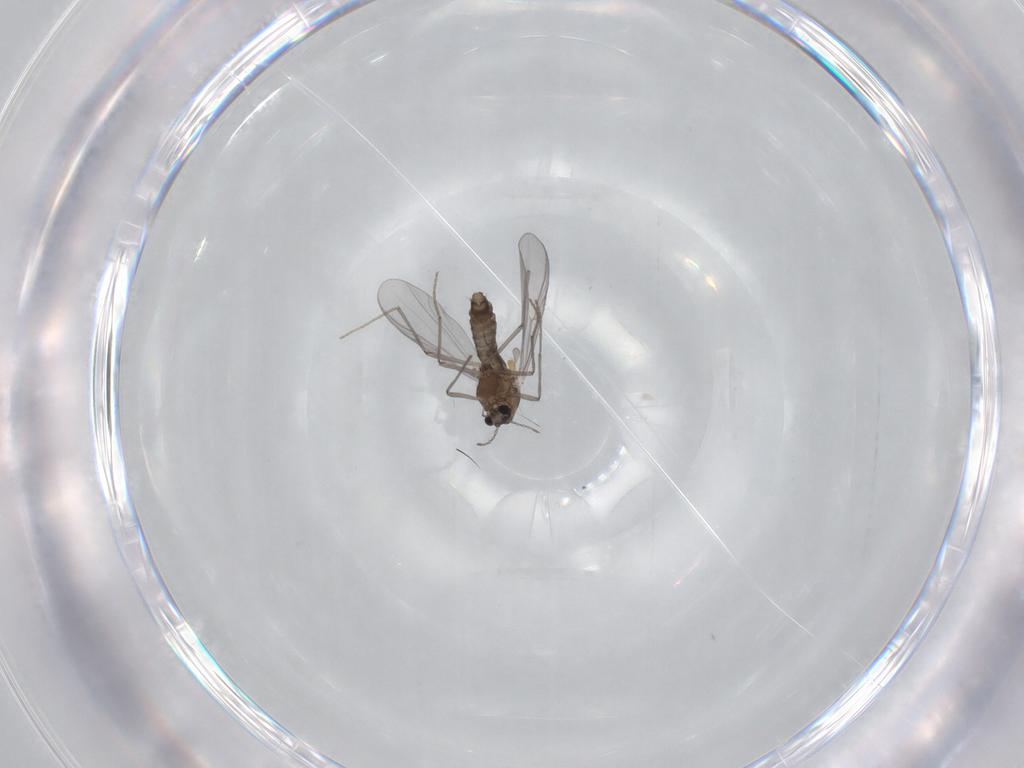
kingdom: Animalia
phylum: Arthropoda
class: Insecta
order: Diptera
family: Chironomidae
